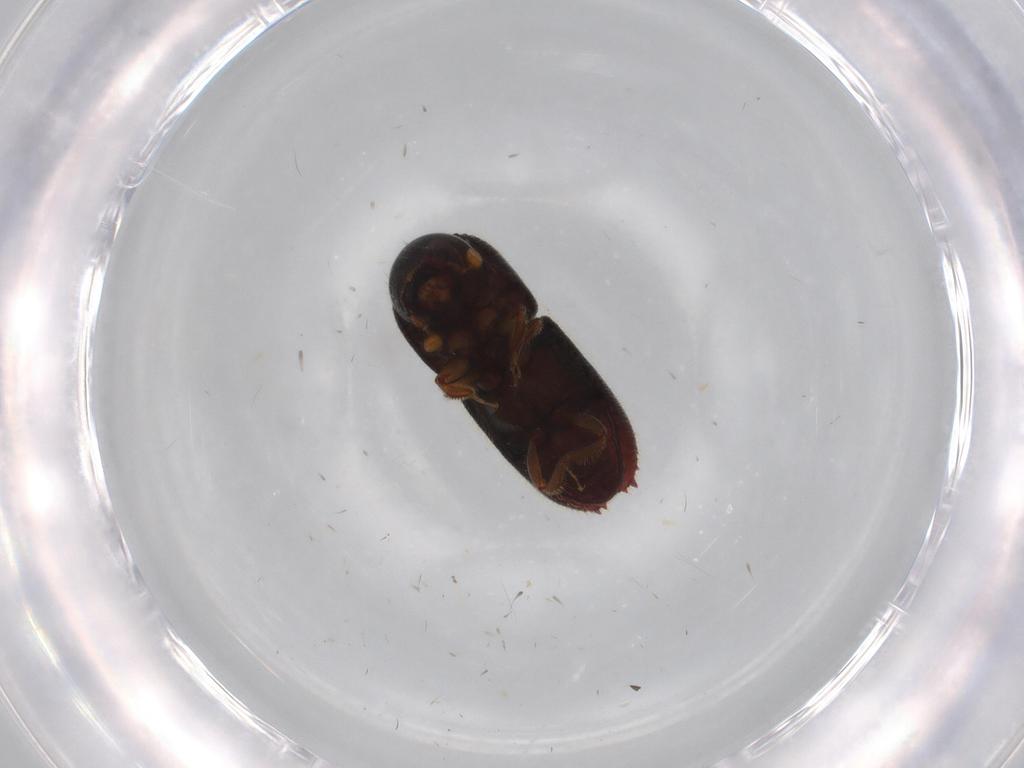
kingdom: Animalia
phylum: Arthropoda
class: Insecta
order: Coleoptera
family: Curculionidae
